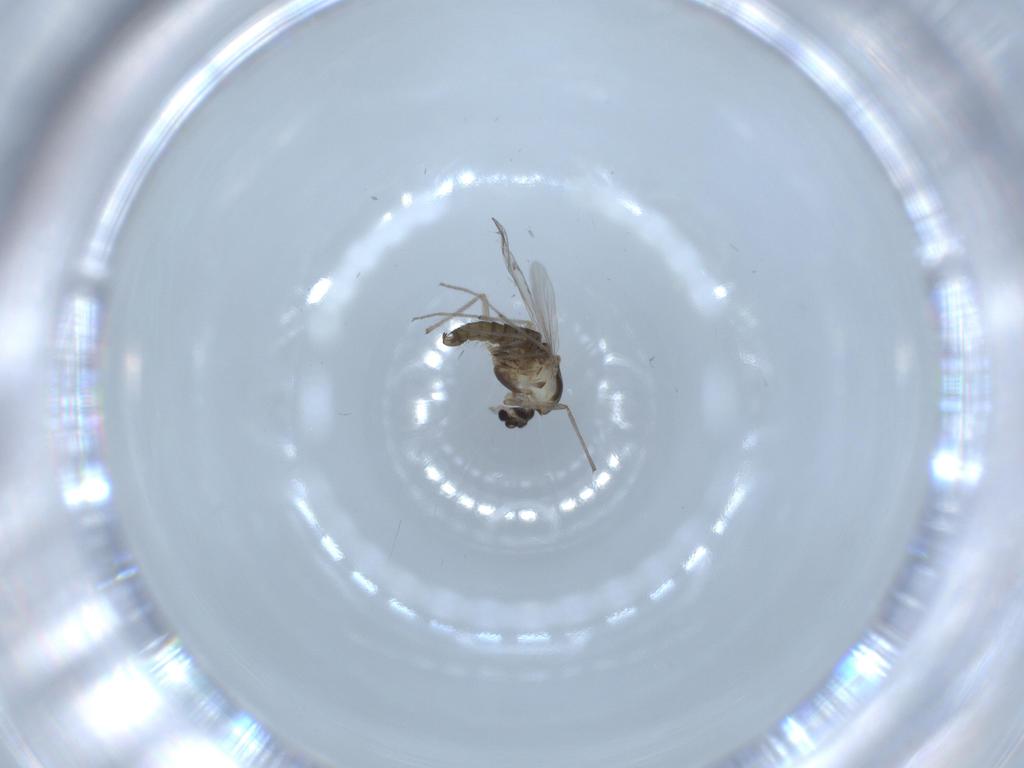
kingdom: Animalia
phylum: Arthropoda
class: Insecta
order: Diptera
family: Chironomidae
